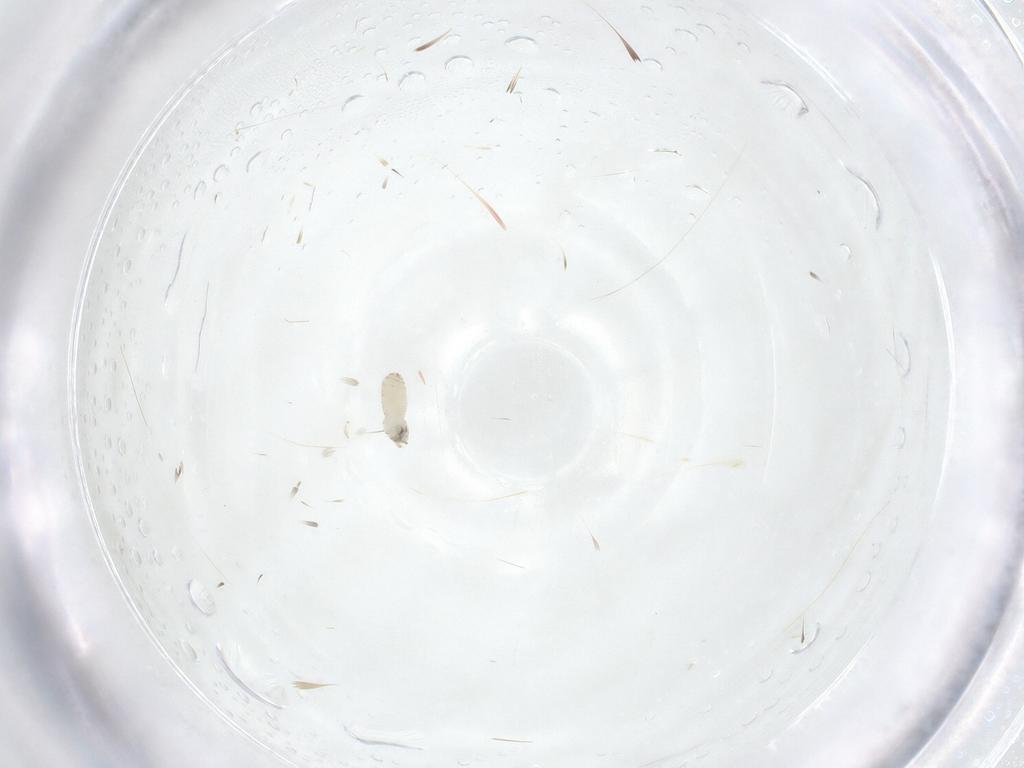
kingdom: Animalia
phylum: Arthropoda
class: Insecta
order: Diptera
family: Tachinidae
